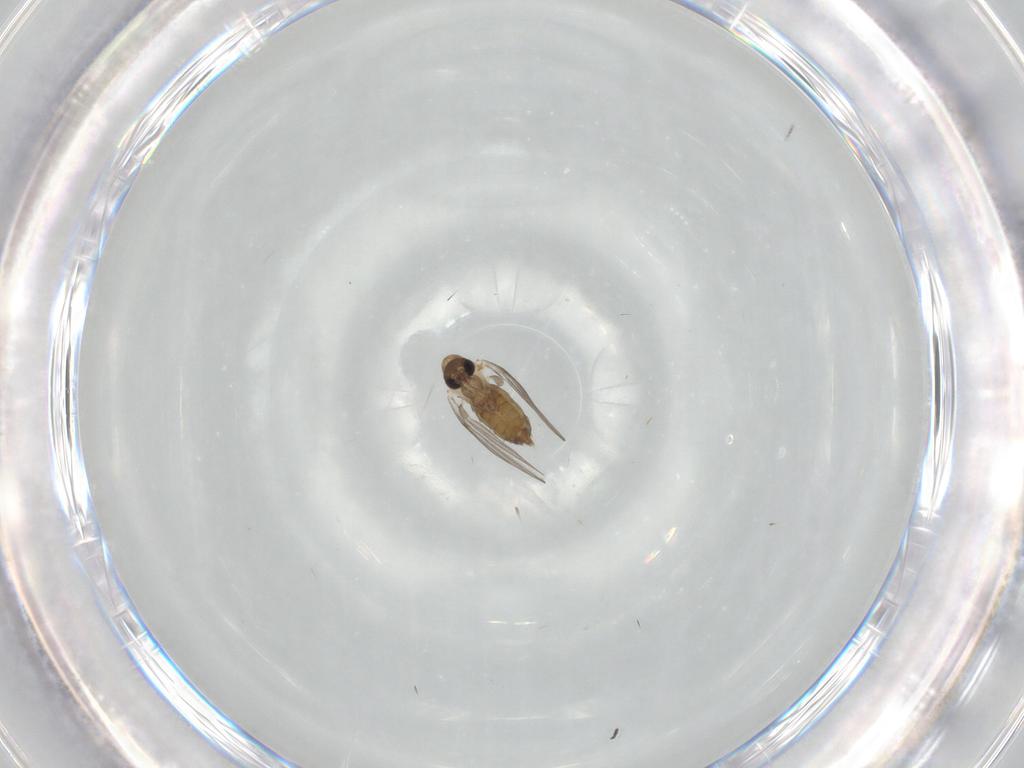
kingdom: Animalia
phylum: Arthropoda
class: Insecta
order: Diptera
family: Sciaridae
